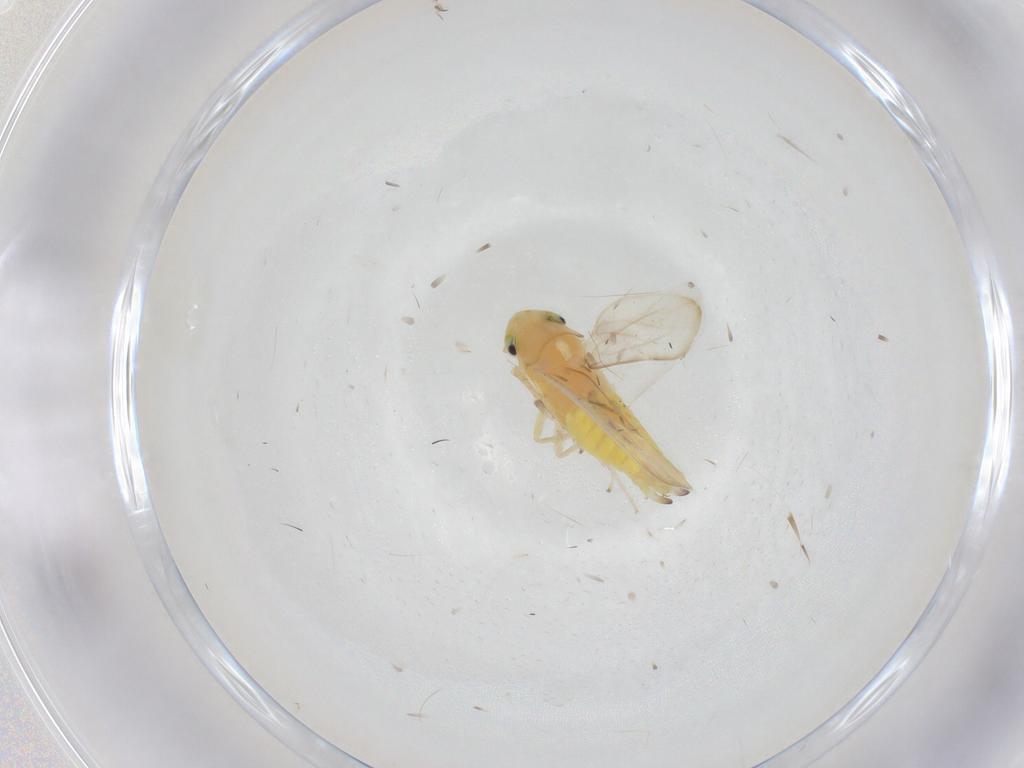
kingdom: Animalia
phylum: Arthropoda
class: Insecta
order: Hemiptera
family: Cicadellidae
